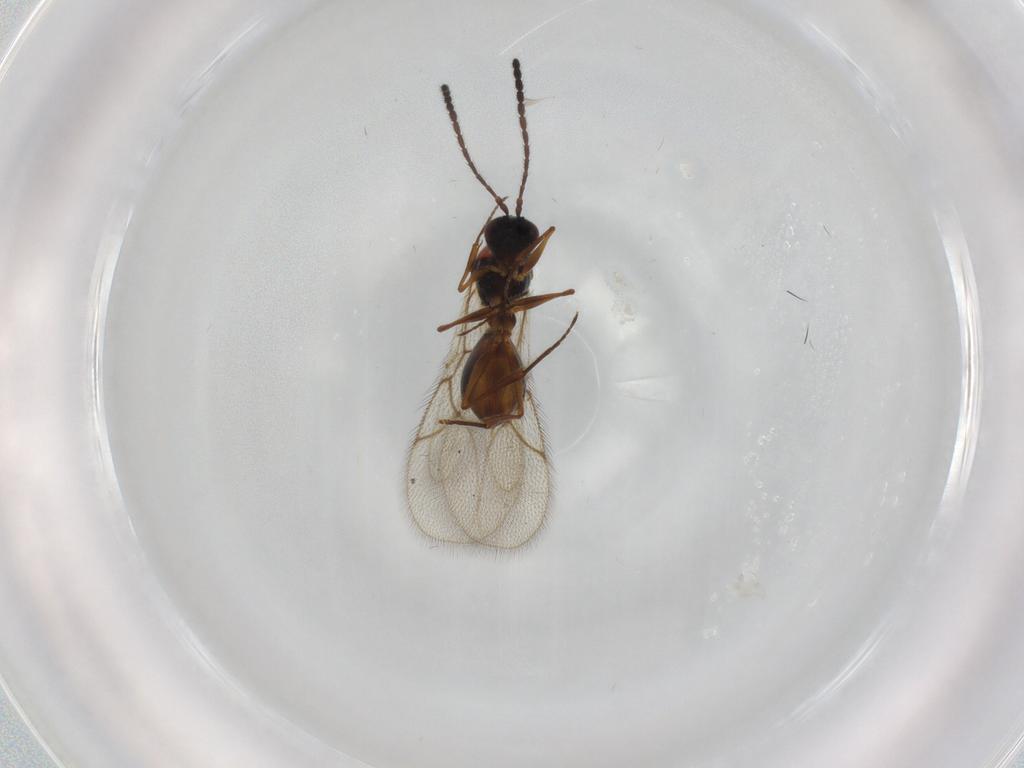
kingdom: Animalia
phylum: Arthropoda
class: Insecta
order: Hymenoptera
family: Figitidae
